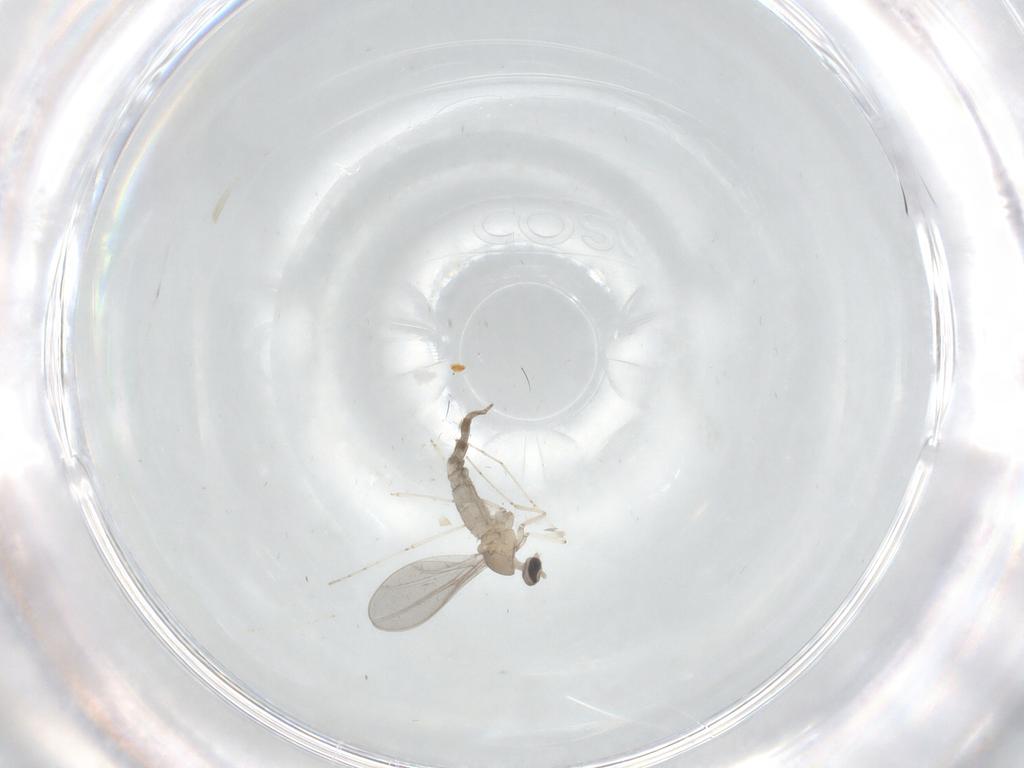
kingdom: Animalia
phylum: Arthropoda
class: Insecta
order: Diptera
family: Cecidomyiidae
